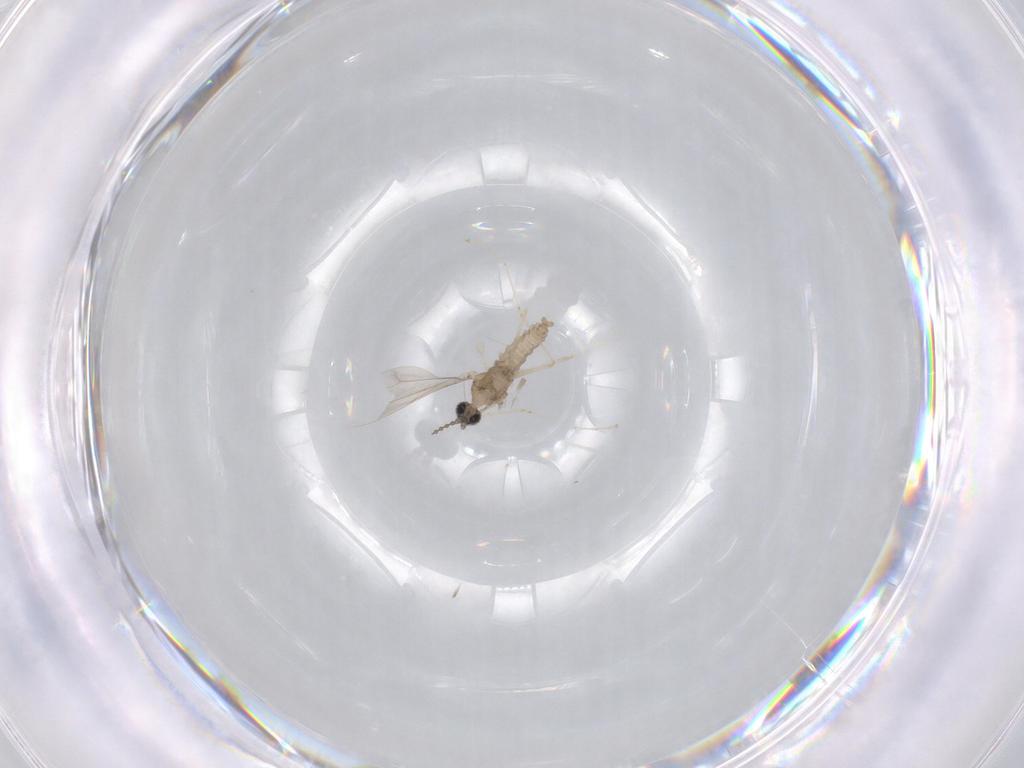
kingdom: Animalia
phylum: Arthropoda
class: Insecta
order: Diptera
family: Cecidomyiidae
